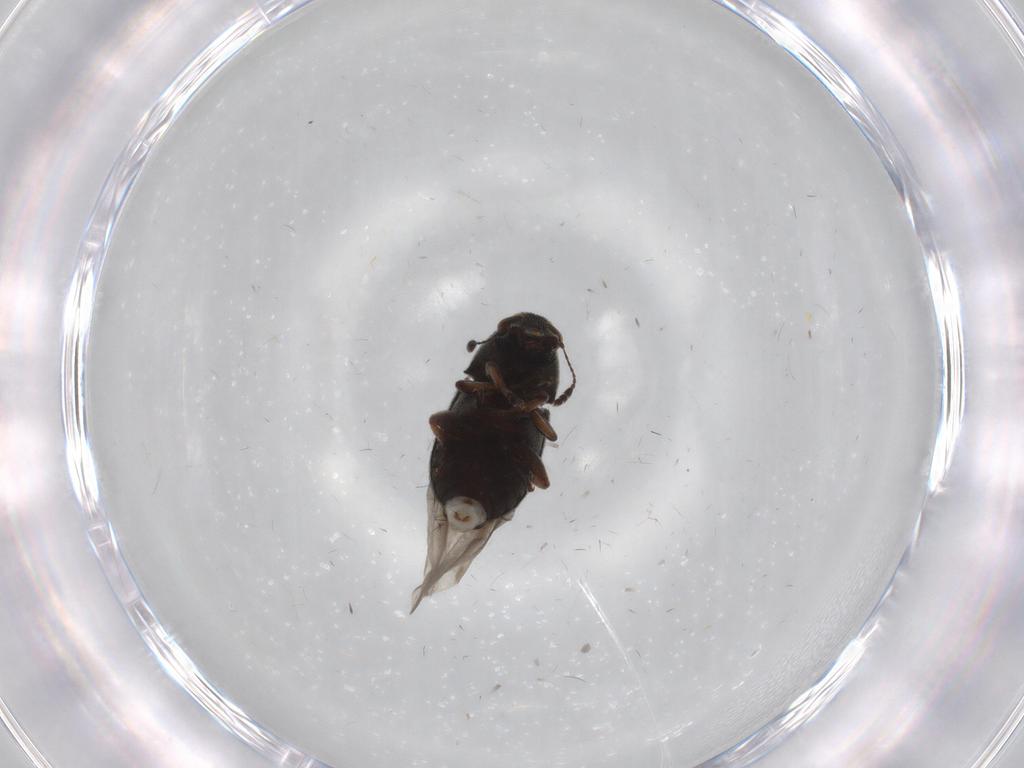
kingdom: Animalia
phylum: Arthropoda
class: Insecta
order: Coleoptera
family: Anthribidae
